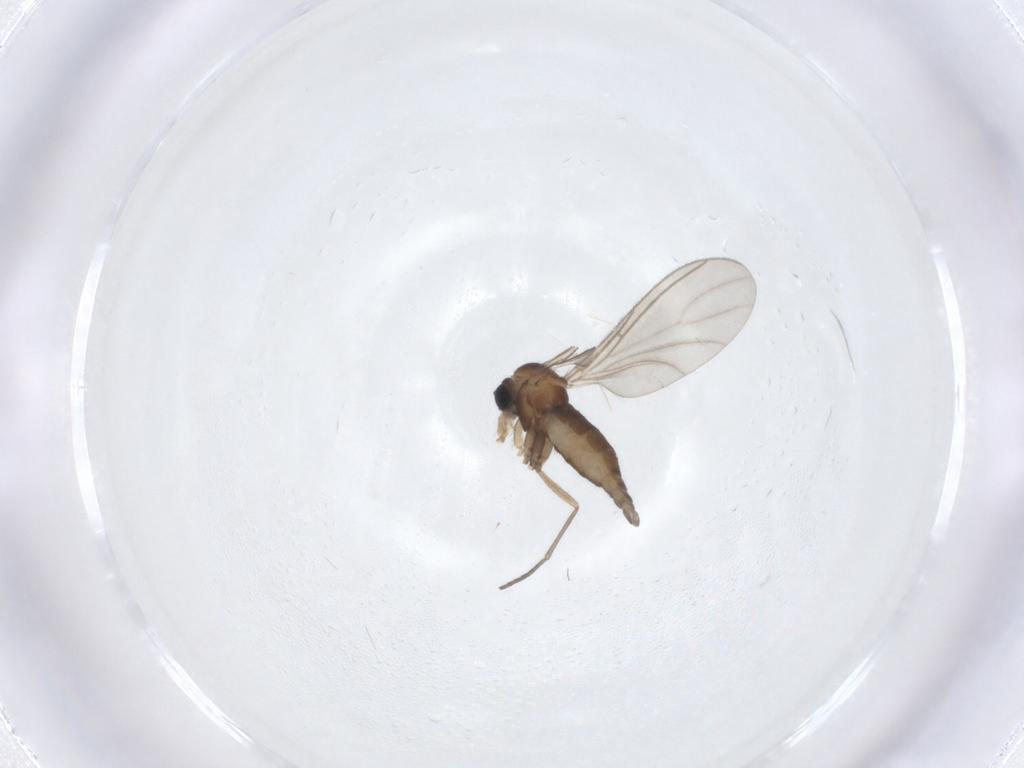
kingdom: Animalia
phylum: Arthropoda
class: Insecta
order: Diptera
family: Sciaridae
